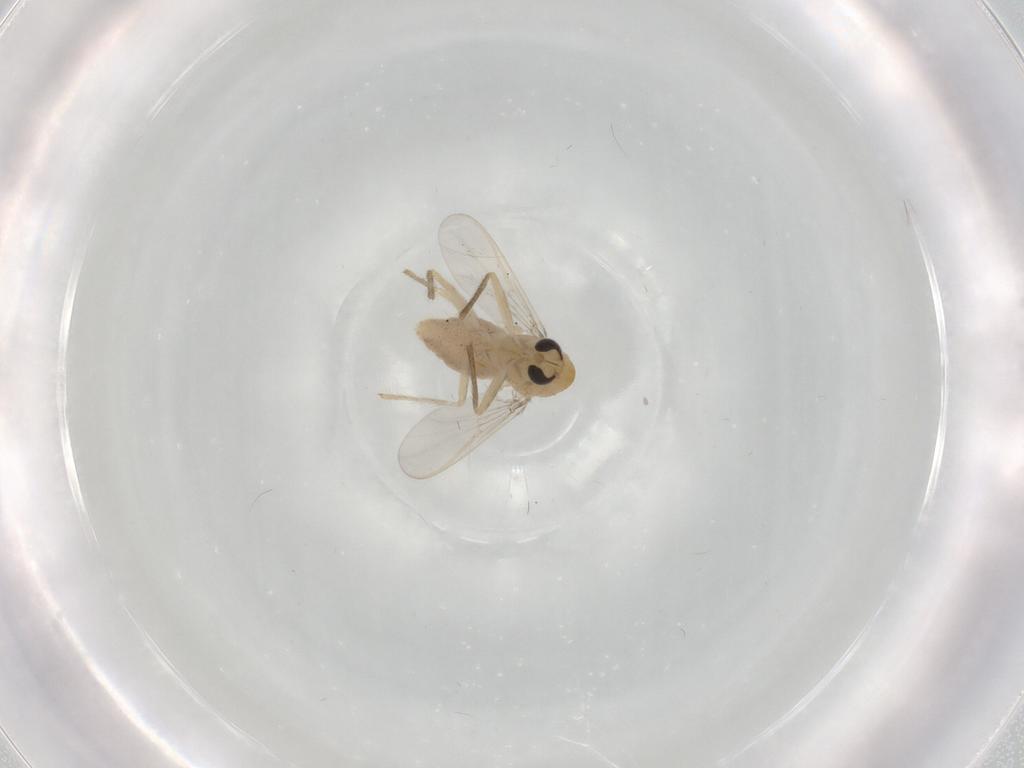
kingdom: Animalia
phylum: Arthropoda
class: Insecta
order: Diptera
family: Chironomidae
